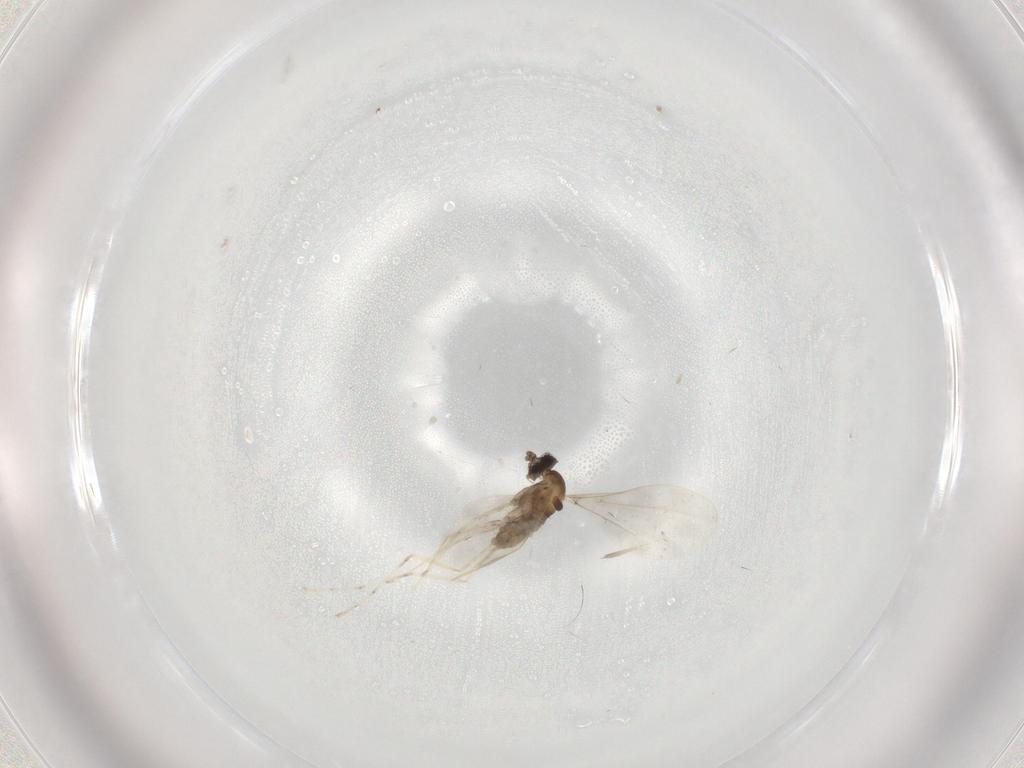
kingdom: Animalia
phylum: Arthropoda
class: Insecta
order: Diptera
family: Cecidomyiidae
